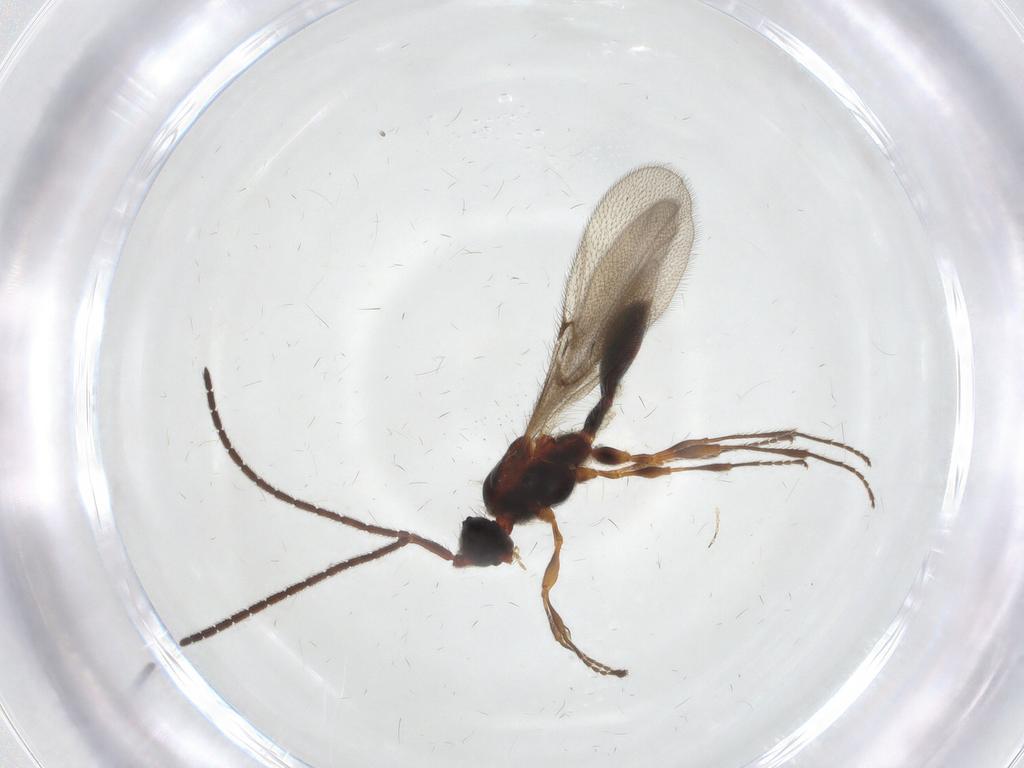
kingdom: Animalia
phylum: Arthropoda
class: Insecta
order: Hymenoptera
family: Diapriidae
